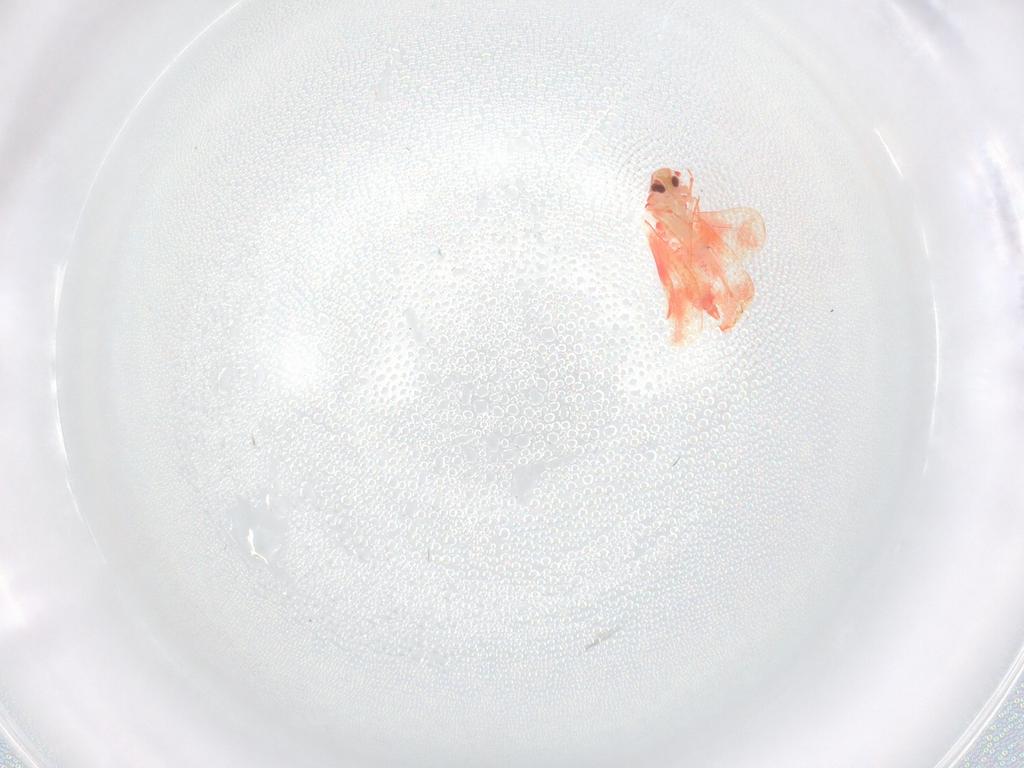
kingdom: Animalia
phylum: Arthropoda
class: Insecta
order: Hemiptera
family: Aleyrodidae
